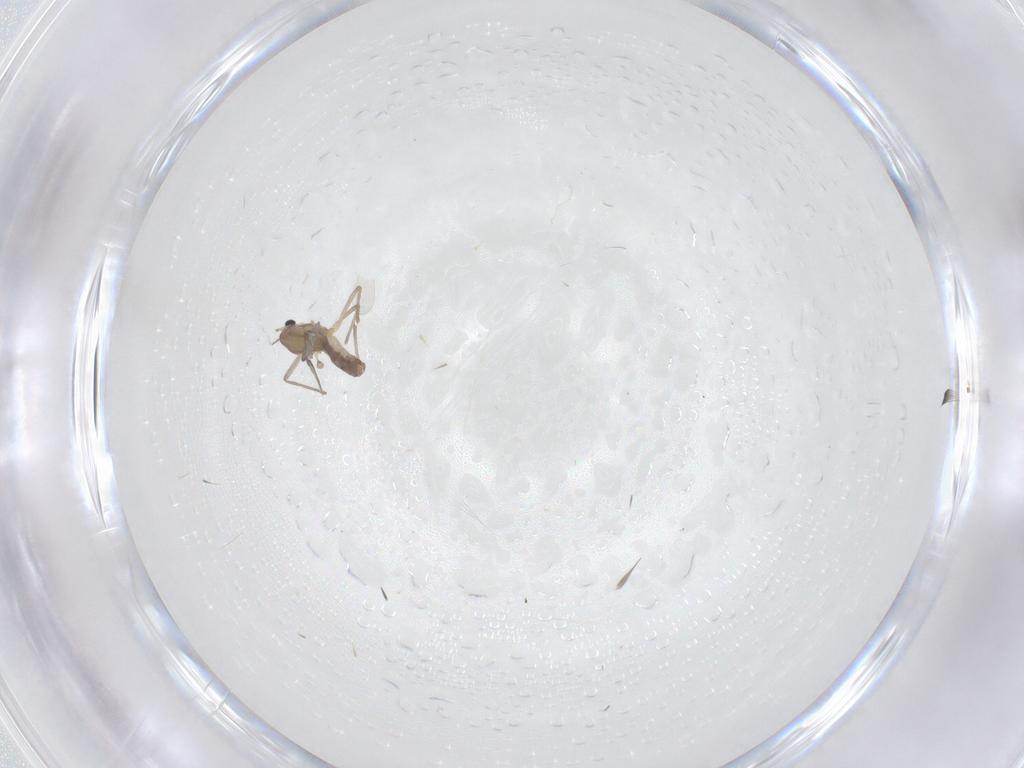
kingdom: Animalia
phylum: Arthropoda
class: Insecta
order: Diptera
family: Chironomidae
